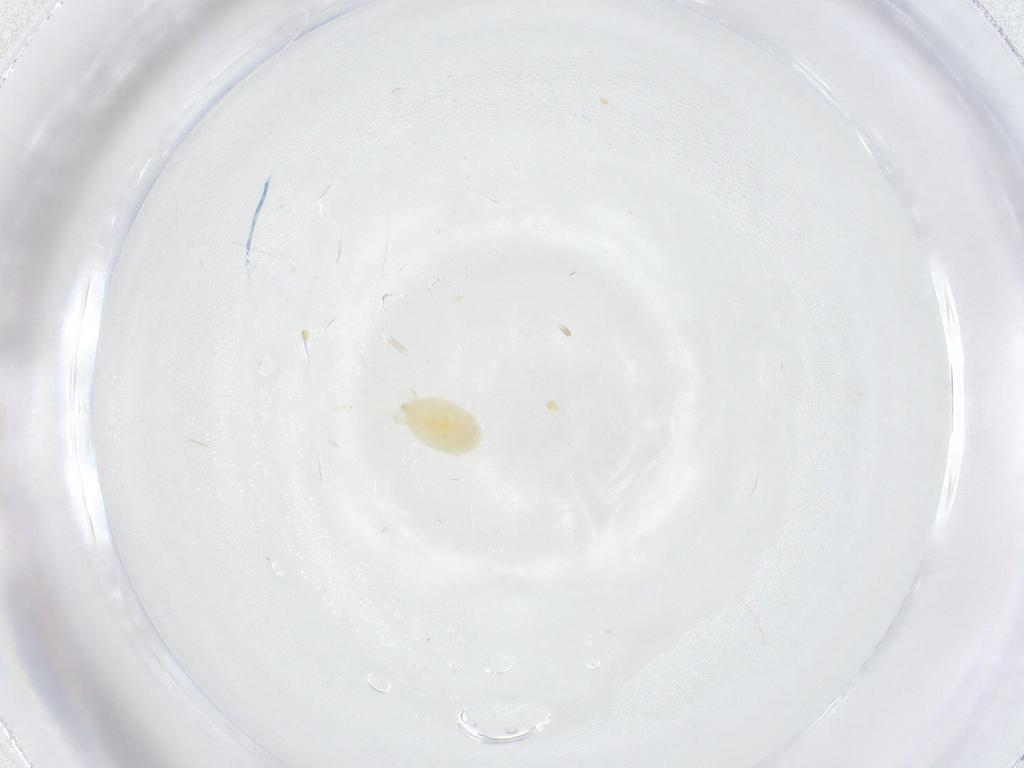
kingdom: Animalia
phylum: Arthropoda
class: Arachnida
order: Trombidiformes
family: Tetranychidae
